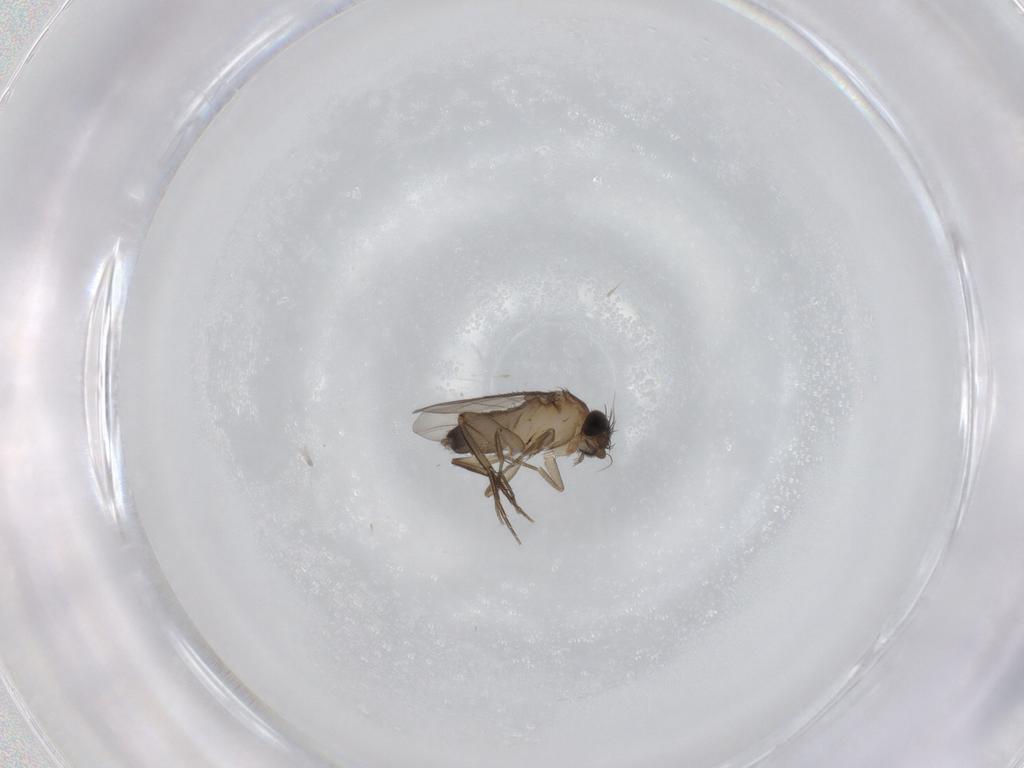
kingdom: Animalia
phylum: Arthropoda
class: Insecta
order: Diptera
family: Phoridae
